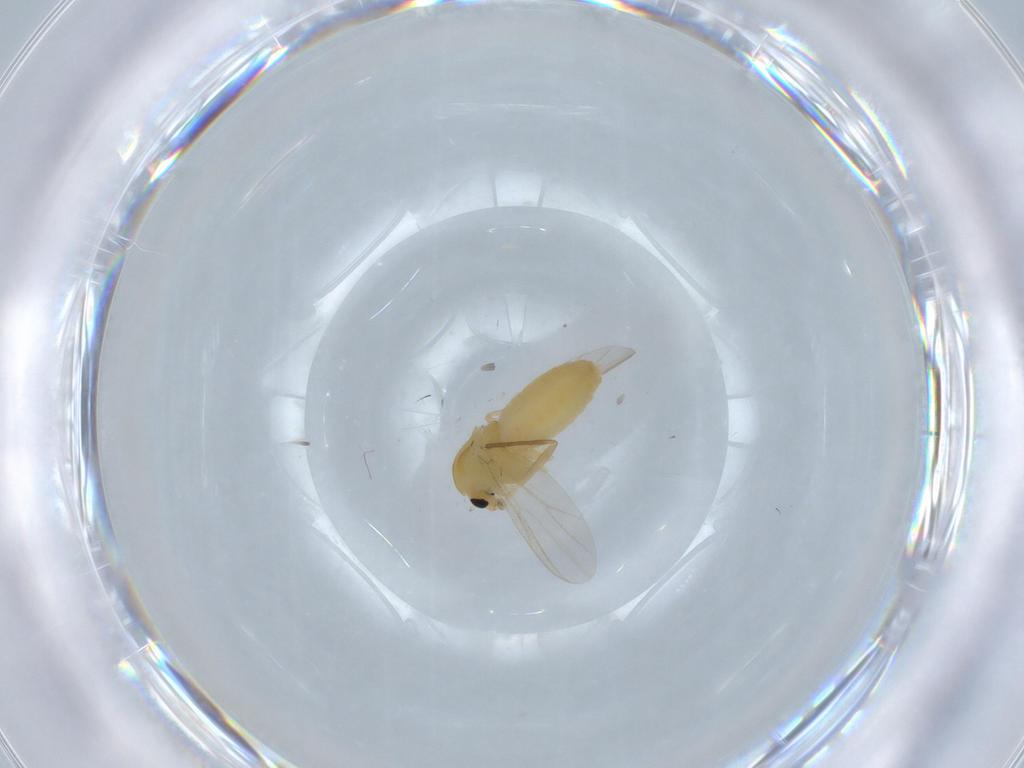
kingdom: Animalia
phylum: Arthropoda
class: Insecta
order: Diptera
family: Chironomidae
